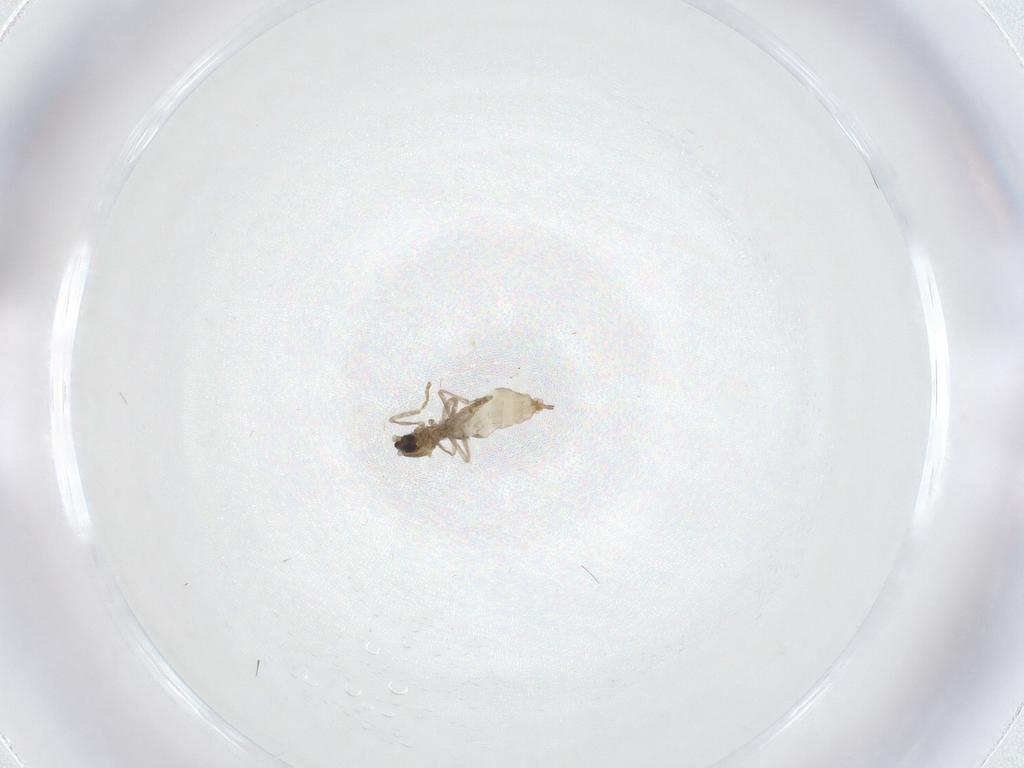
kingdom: Animalia
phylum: Arthropoda
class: Insecta
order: Diptera
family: Cecidomyiidae
